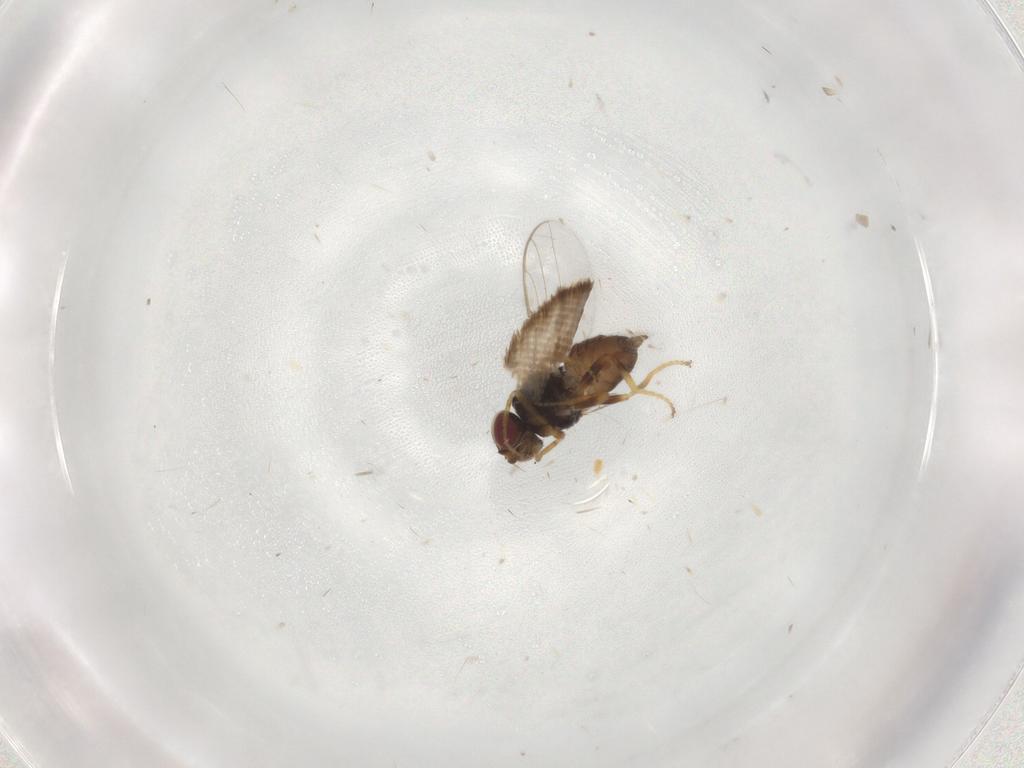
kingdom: Animalia
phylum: Arthropoda
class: Insecta
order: Diptera
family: Chloropidae
